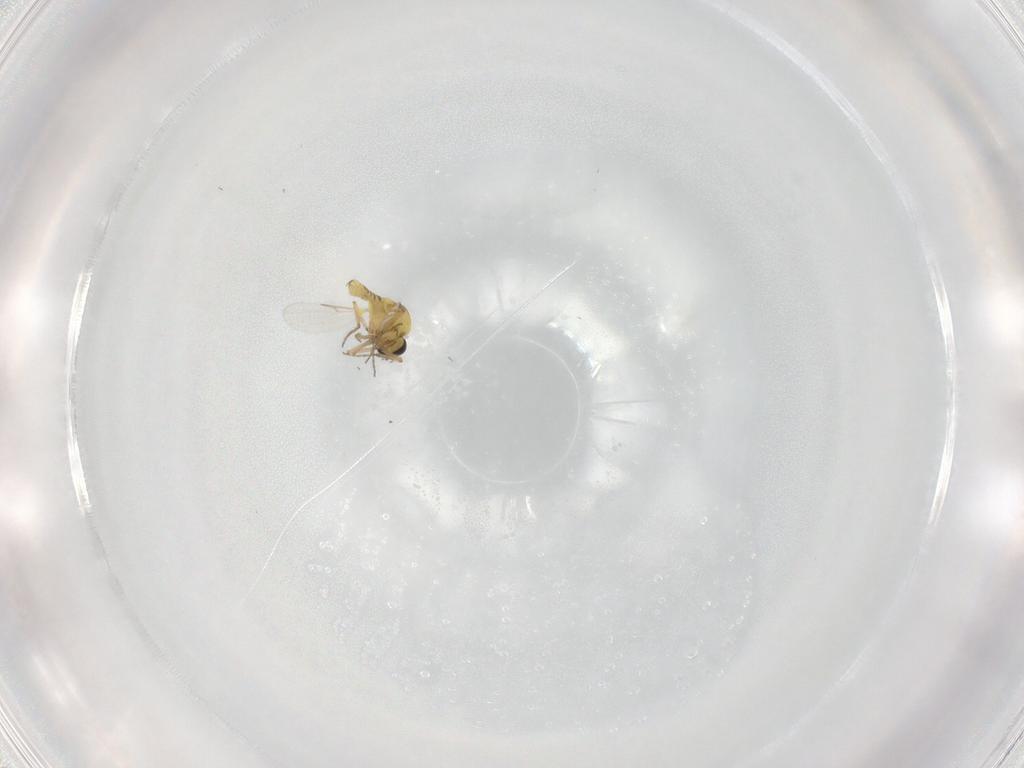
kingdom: Animalia
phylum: Arthropoda
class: Insecta
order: Diptera
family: Ceratopogonidae
